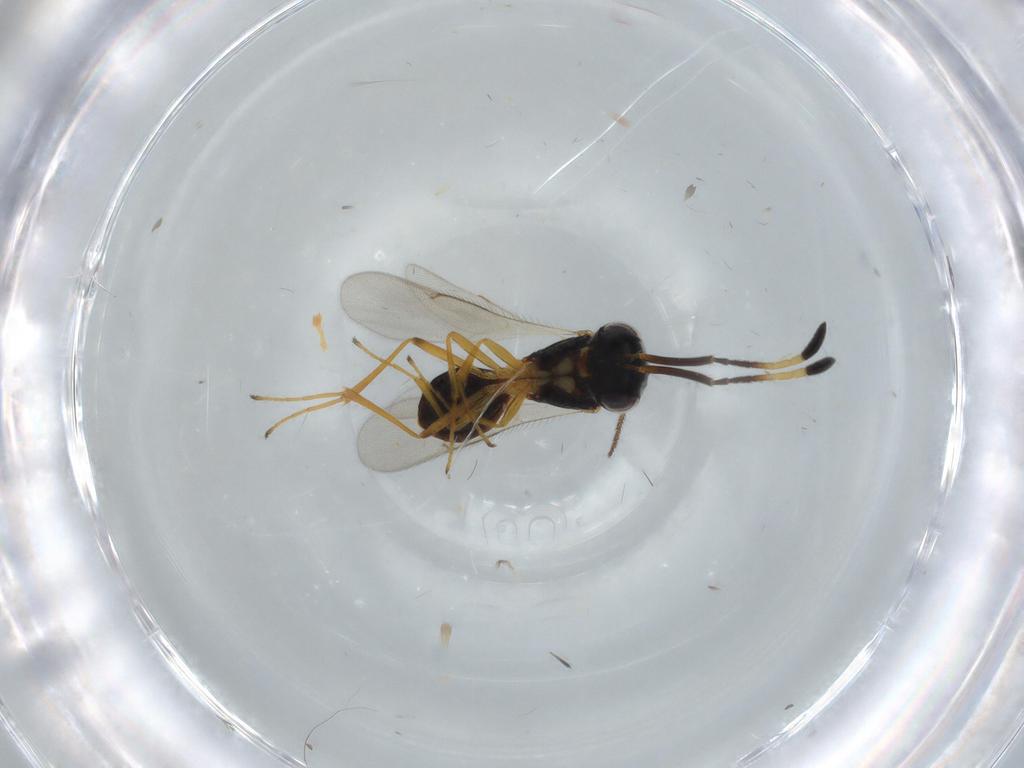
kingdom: Animalia
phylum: Arthropoda
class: Insecta
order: Hymenoptera
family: Scelionidae
